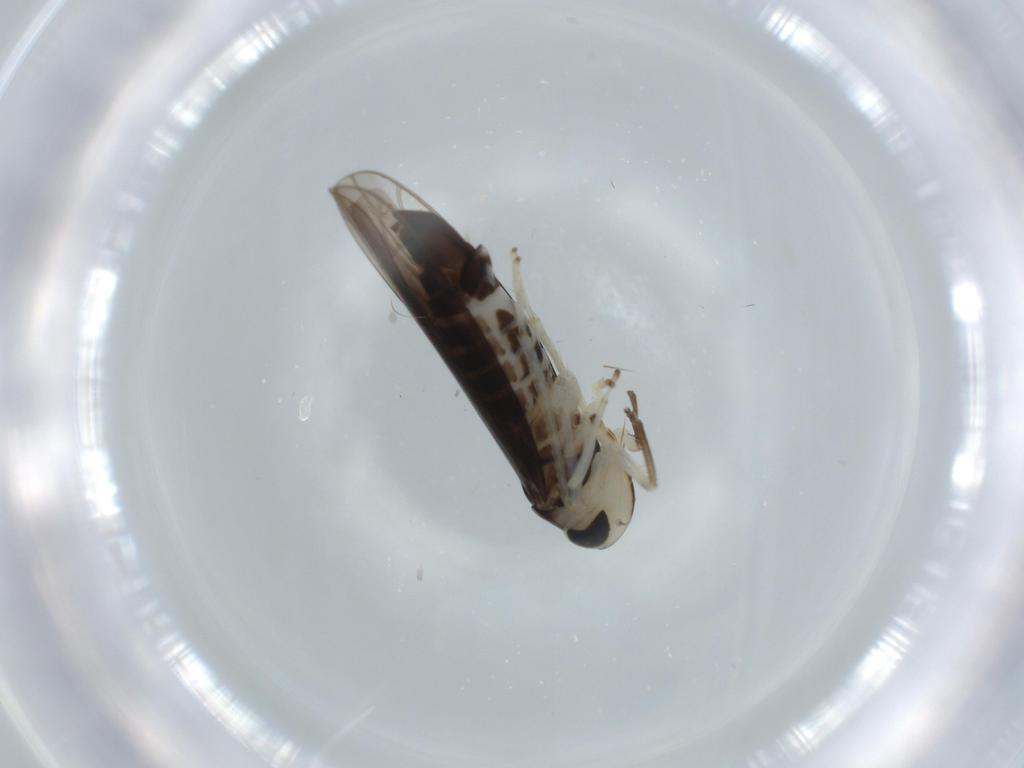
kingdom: Animalia
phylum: Arthropoda
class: Insecta
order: Hemiptera
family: Cicadellidae
